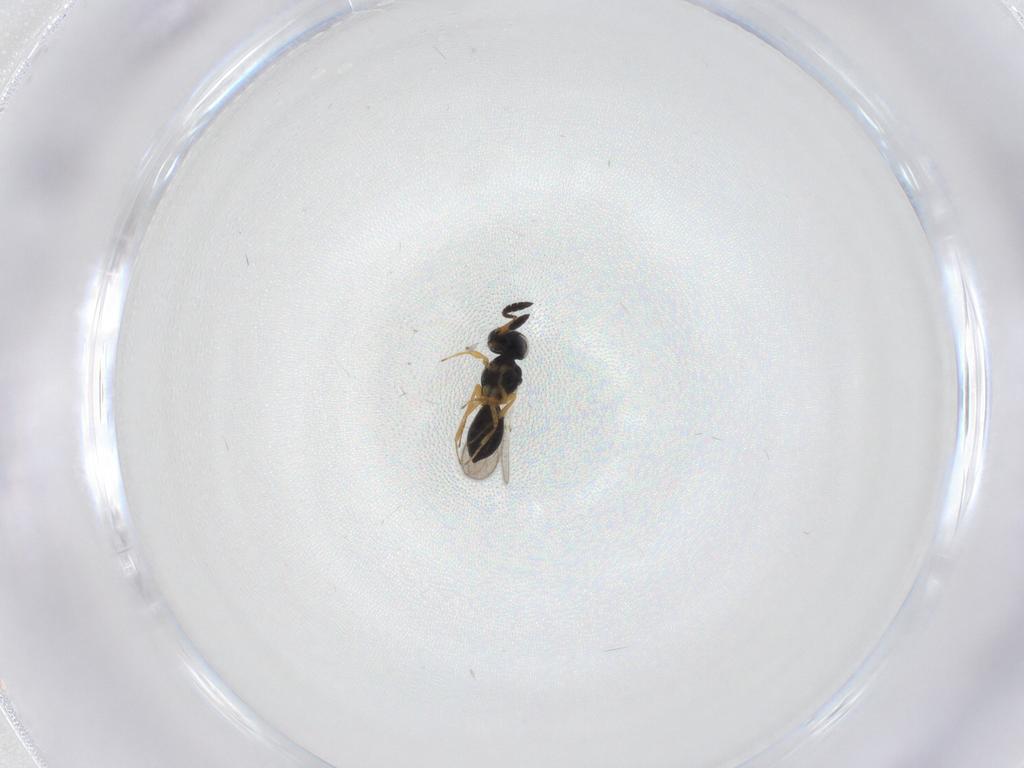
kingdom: Animalia
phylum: Arthropoda
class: Insecta
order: Hymenoptera
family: Scelionidae
